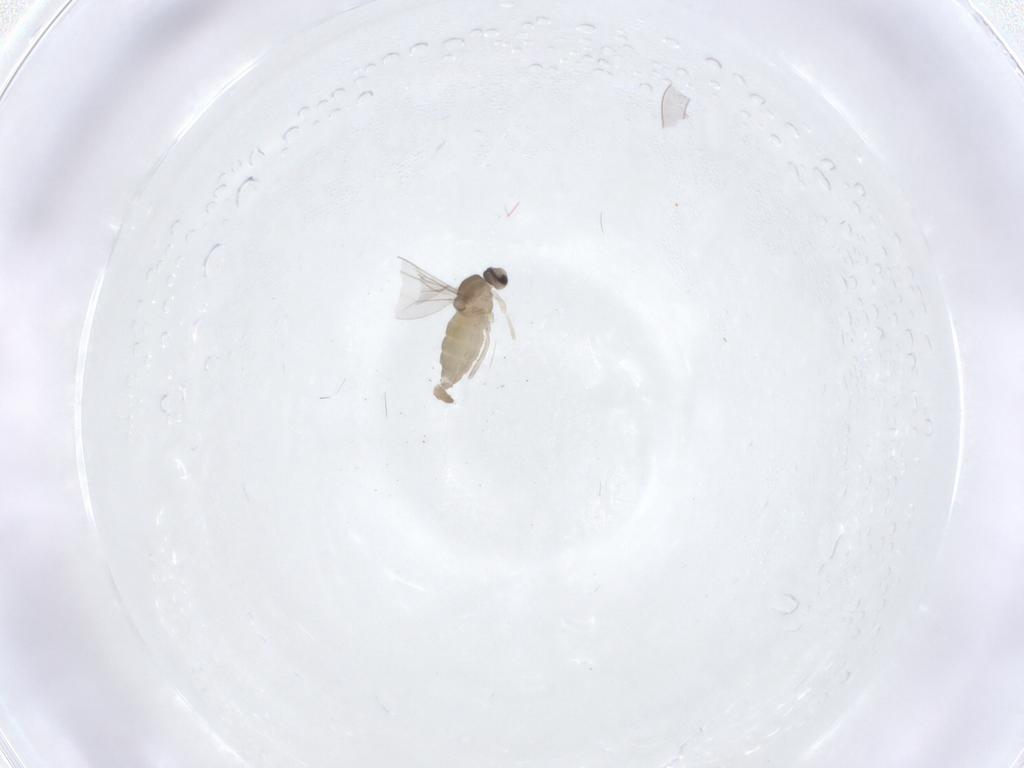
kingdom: Animalia
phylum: Arthropoda
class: Insecta
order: Diptera
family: Cecidomyiidae
